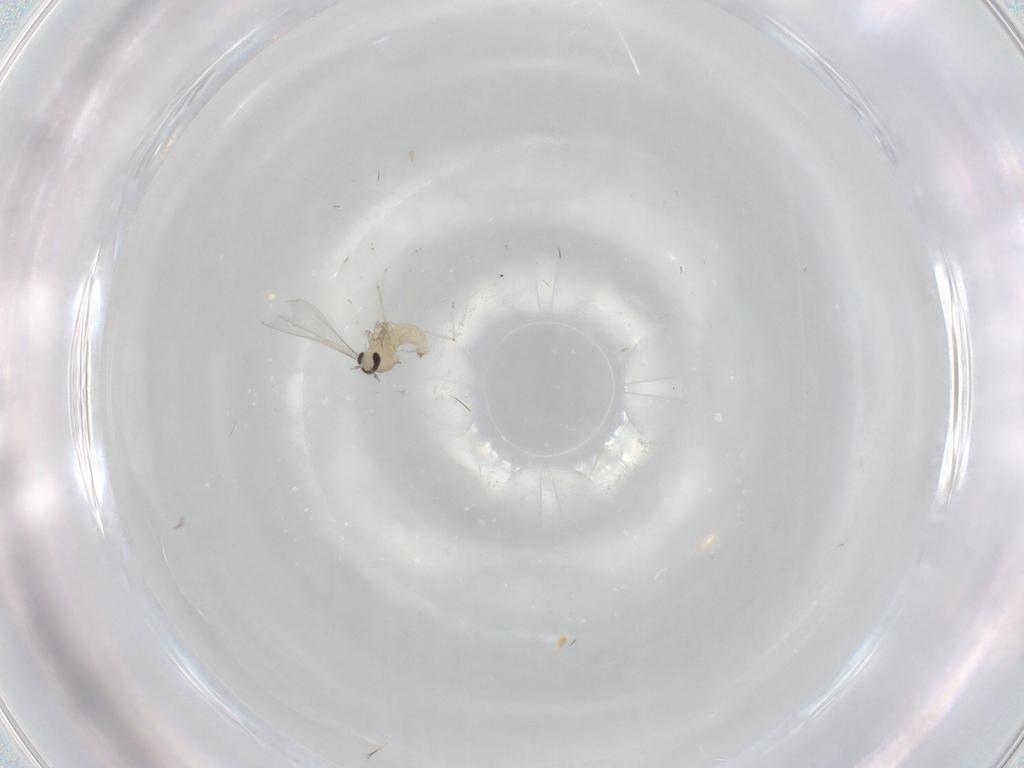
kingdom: Animalia
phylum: Arthropoda
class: Insecta
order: Diptera
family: Cecidomyiidae
